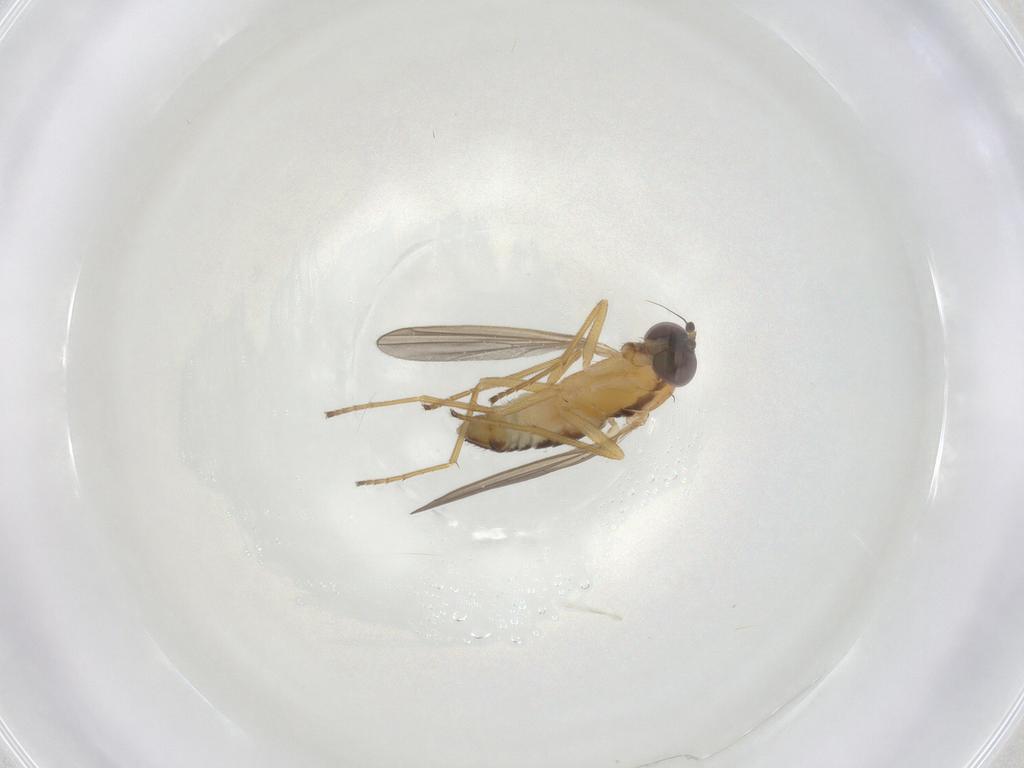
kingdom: Animalia
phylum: Arthropoda
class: Insecta
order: Diptera
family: Dolichopodidae
